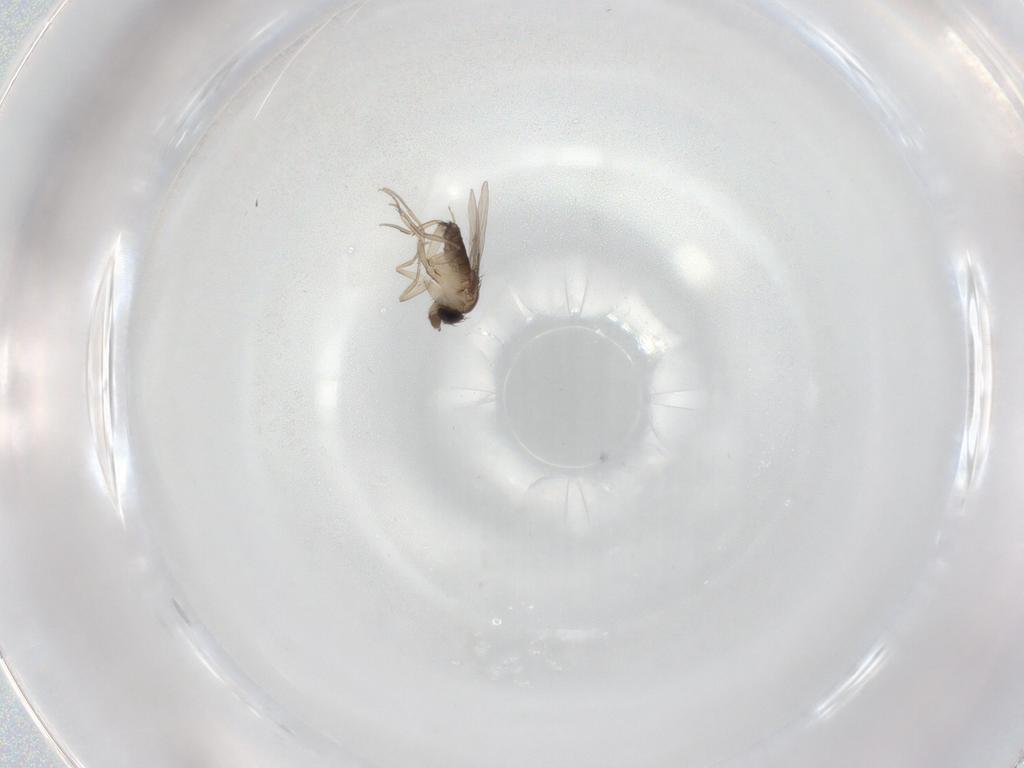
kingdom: Animalia
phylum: Arthropoda
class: Insecta
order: Diptera
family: Phoridae
